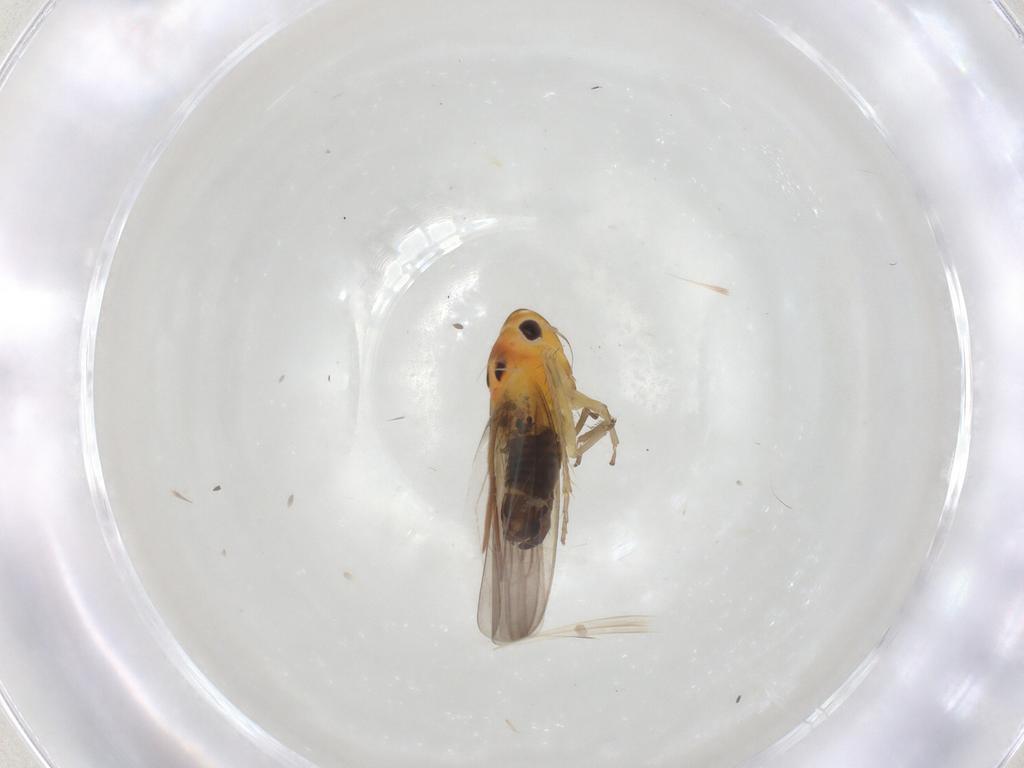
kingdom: Animalia
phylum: Arthropoda
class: Insecta
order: Hemiptera
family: Cicadellidae
